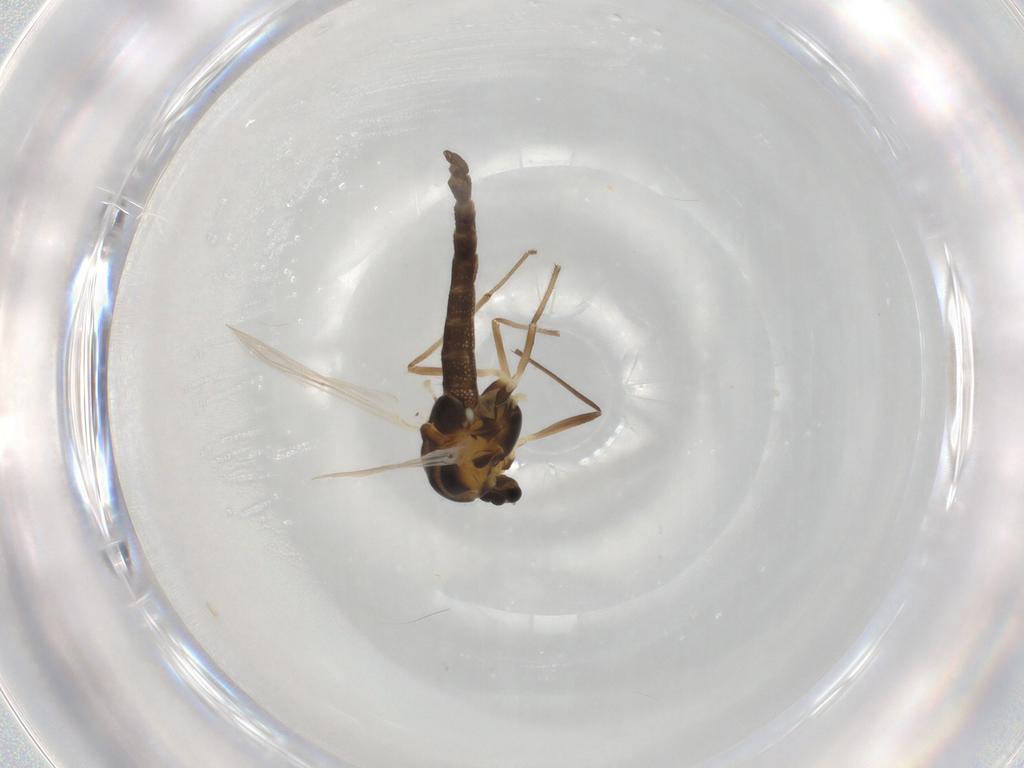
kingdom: Animalia
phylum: Arthropoda
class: Insecta
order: Diptera
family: Chironomidae
